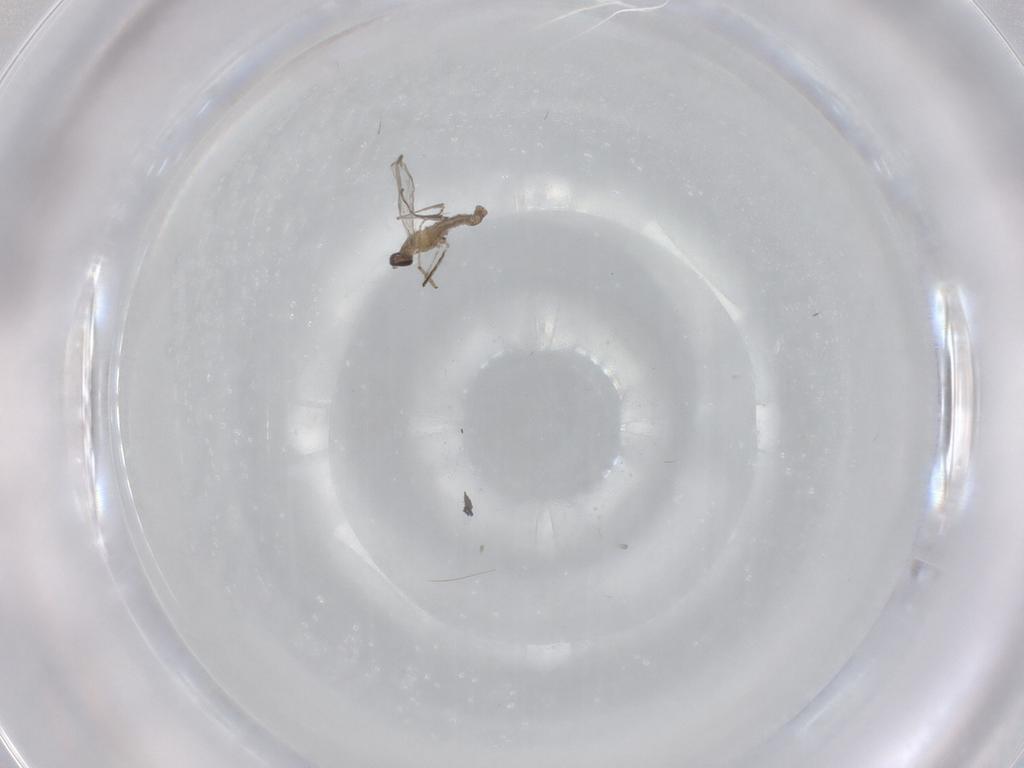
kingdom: Animalia
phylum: Arthropoda
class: Insecta
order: Diptera
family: Cecidomyiidae
